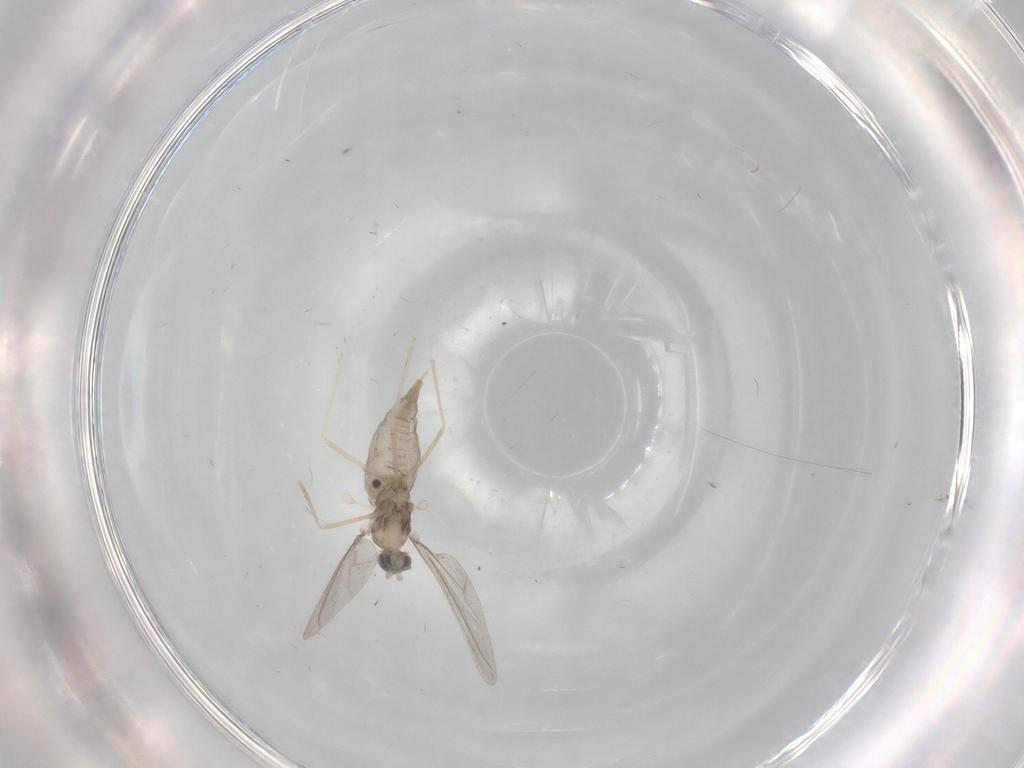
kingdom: Animalia
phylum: Arthropoda
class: Insecta
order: Diptera
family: Cecidomyiidae
